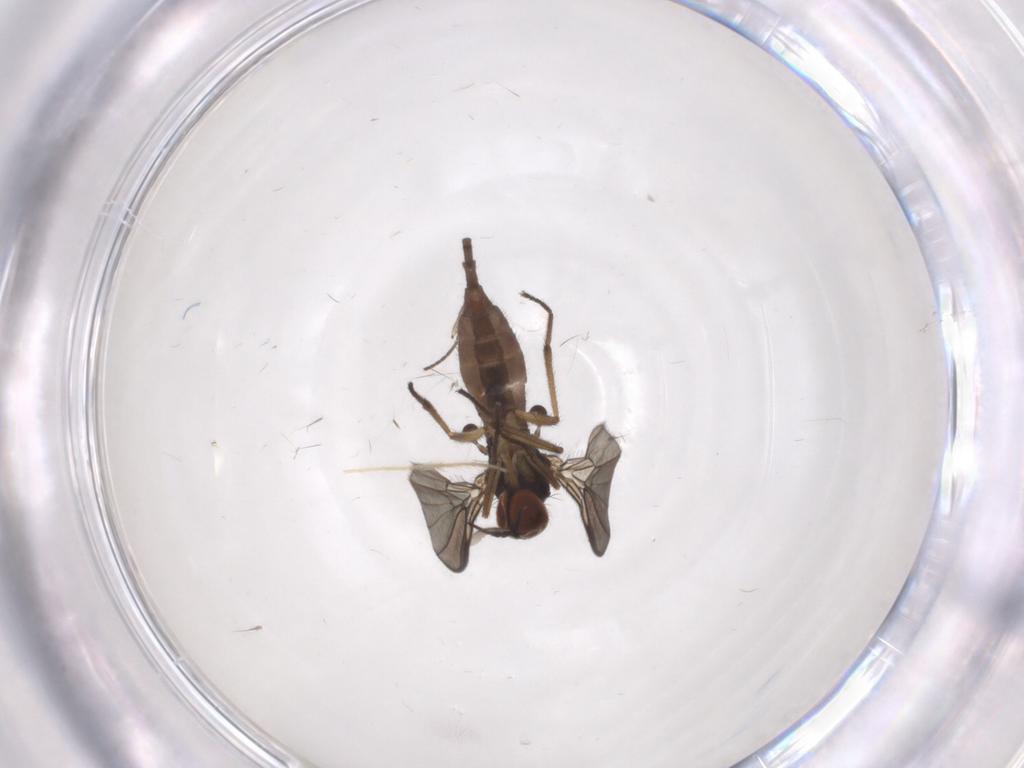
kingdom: Animalia
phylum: Arthropoda
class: Insecta
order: Diptera
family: Empididae
